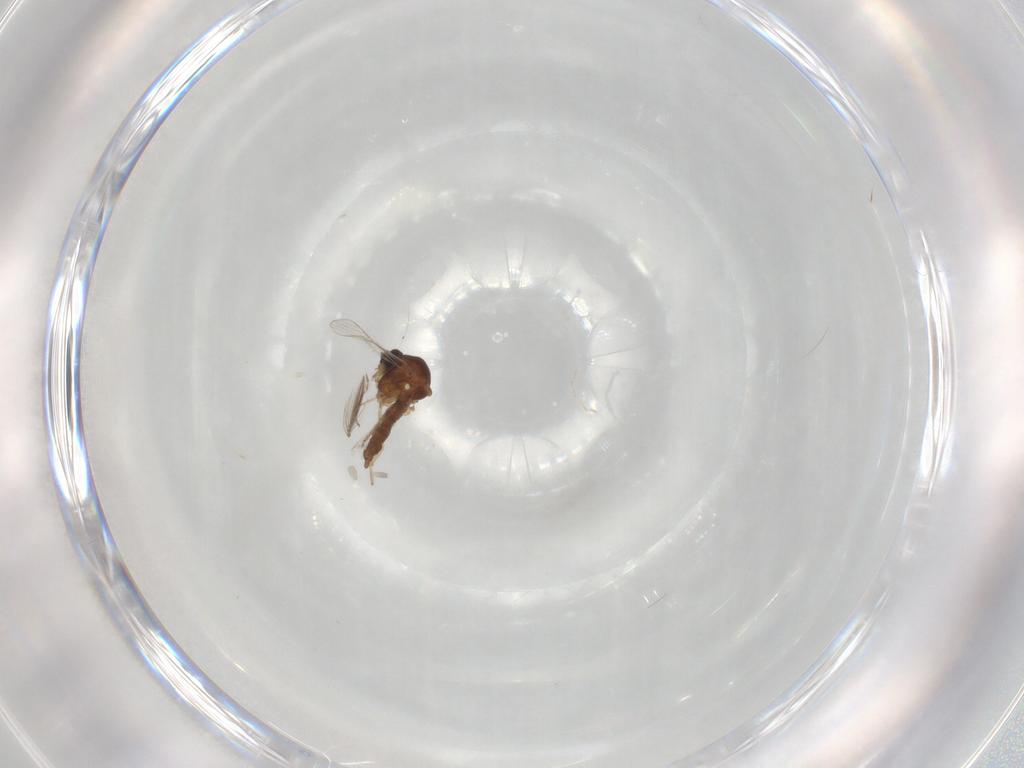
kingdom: Animalia
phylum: Arthropoda
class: Insecta
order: Diptera
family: Ceratopogonidae
